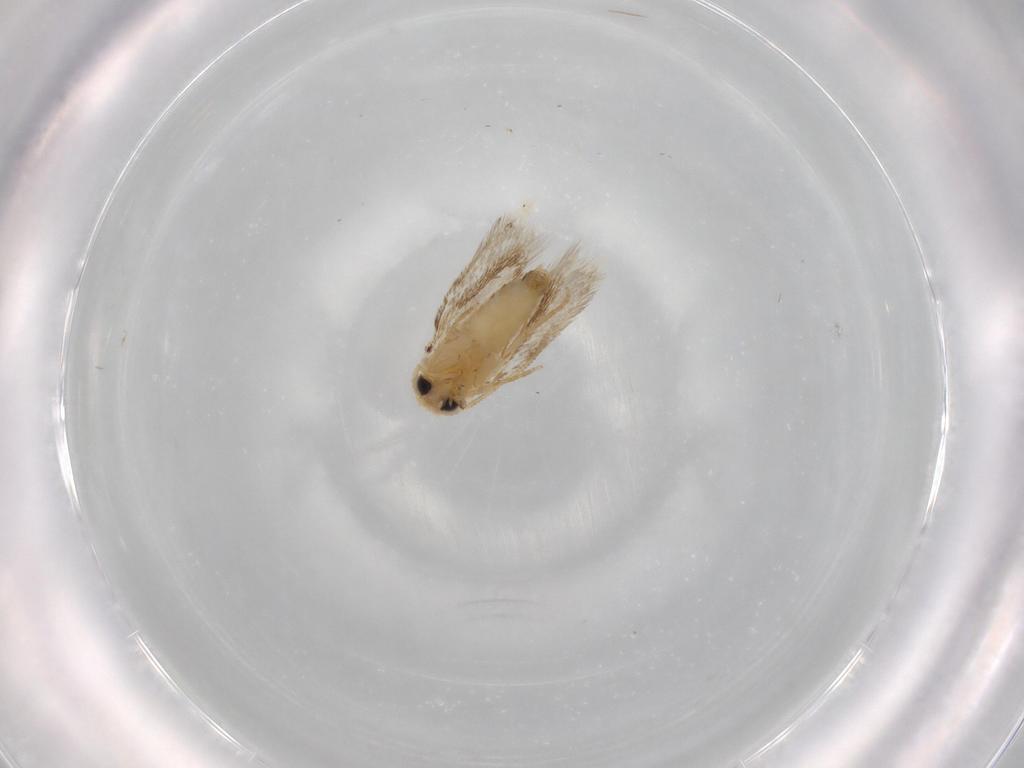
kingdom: Animalia
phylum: Arthropoda
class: Insecta
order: Lepidoptera
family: Nepticulidae
